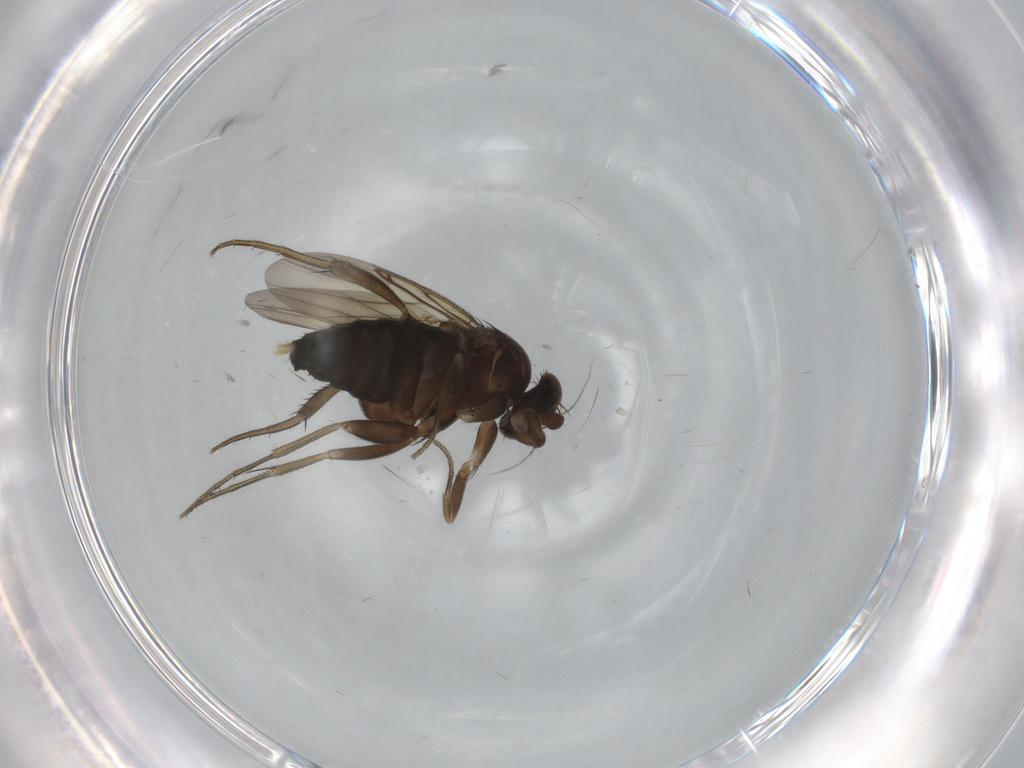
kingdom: Animalia
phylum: Arthropoda
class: Insecta
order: Diptera
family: Phoridae
